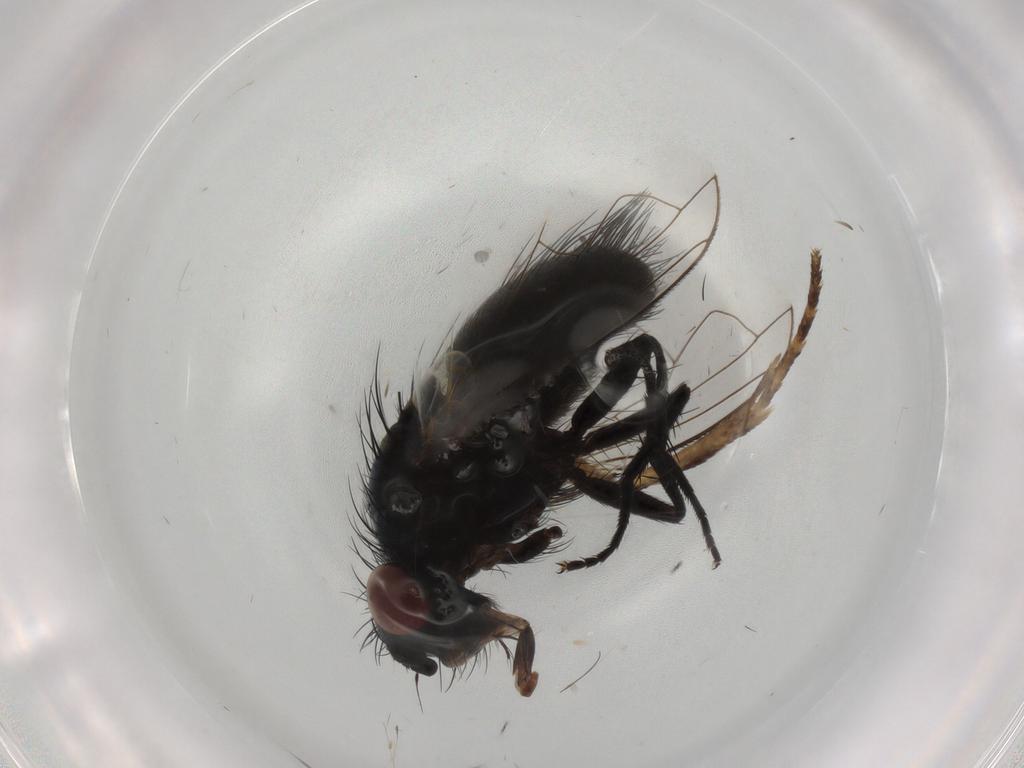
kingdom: Animalia
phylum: Arthropoda
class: Insecta
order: Diptera
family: Tachinidae
